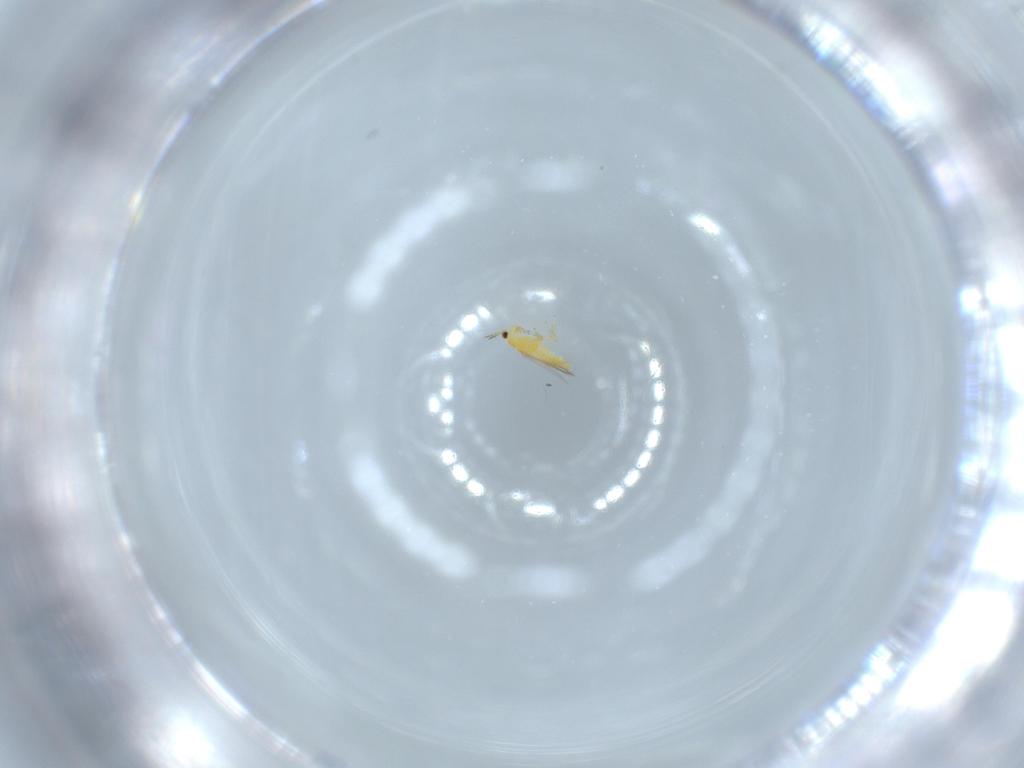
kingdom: Animalia
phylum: Arthropoda
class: Insecta
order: Thysanoptera
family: Thripidae
